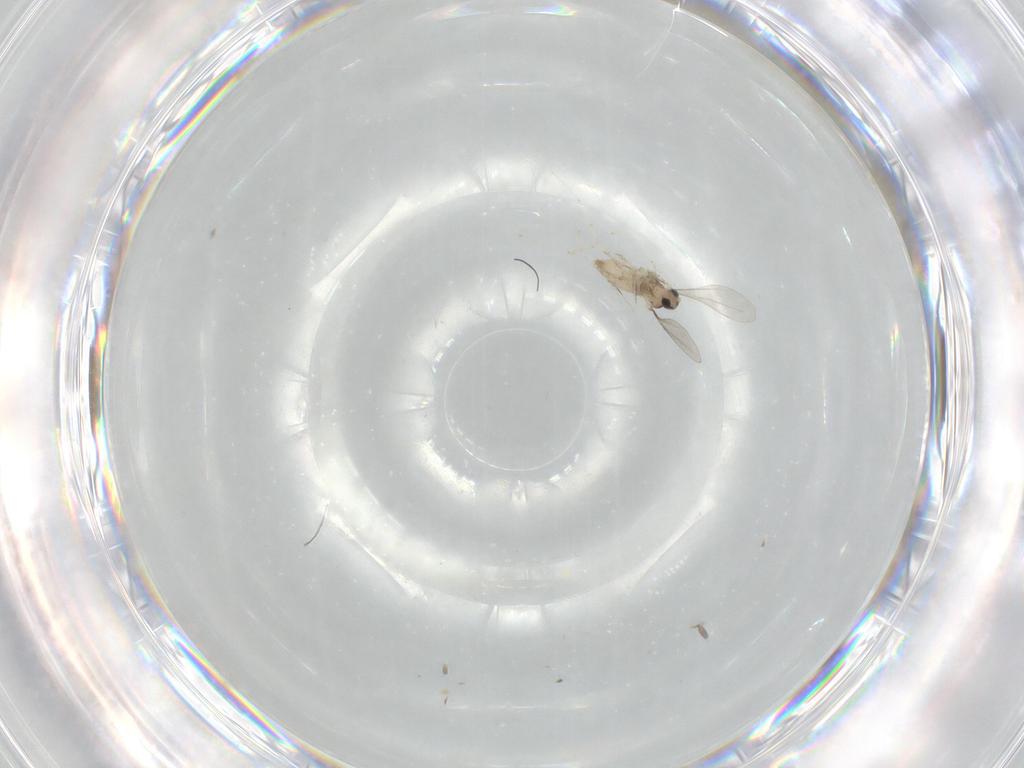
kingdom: Animalia
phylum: Arthropoda
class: Insecta
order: Diptera
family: Cecidomyiidae
